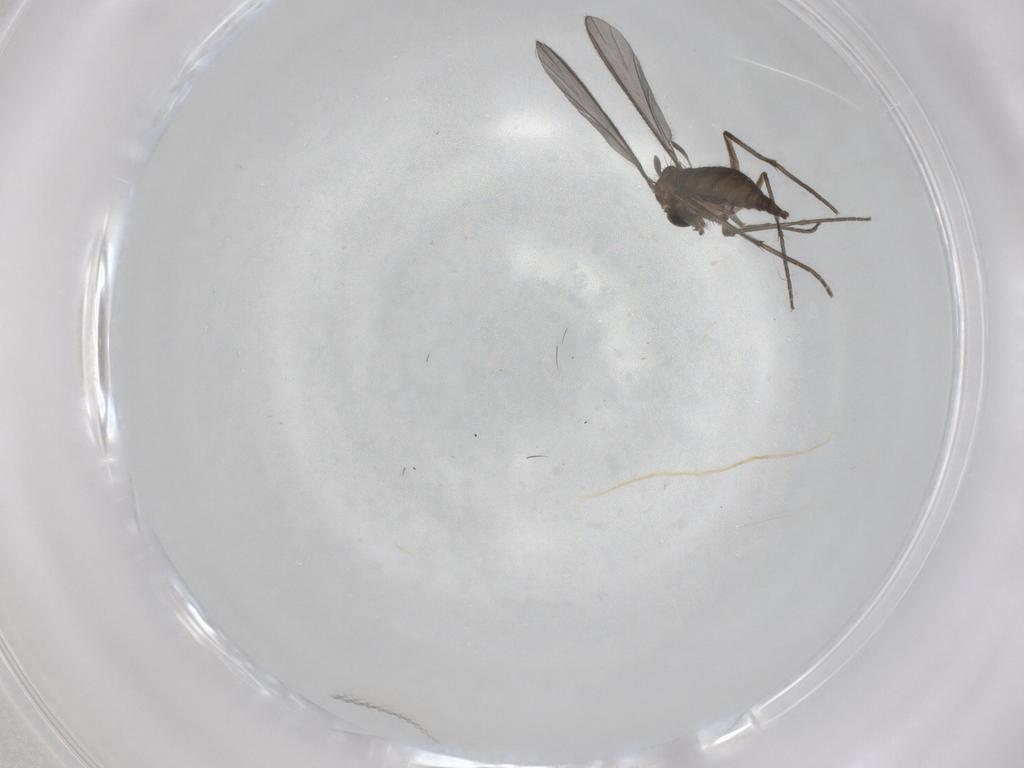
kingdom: Animalia
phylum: Arthropoda
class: Insecta
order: Diptera
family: Sciaridae
